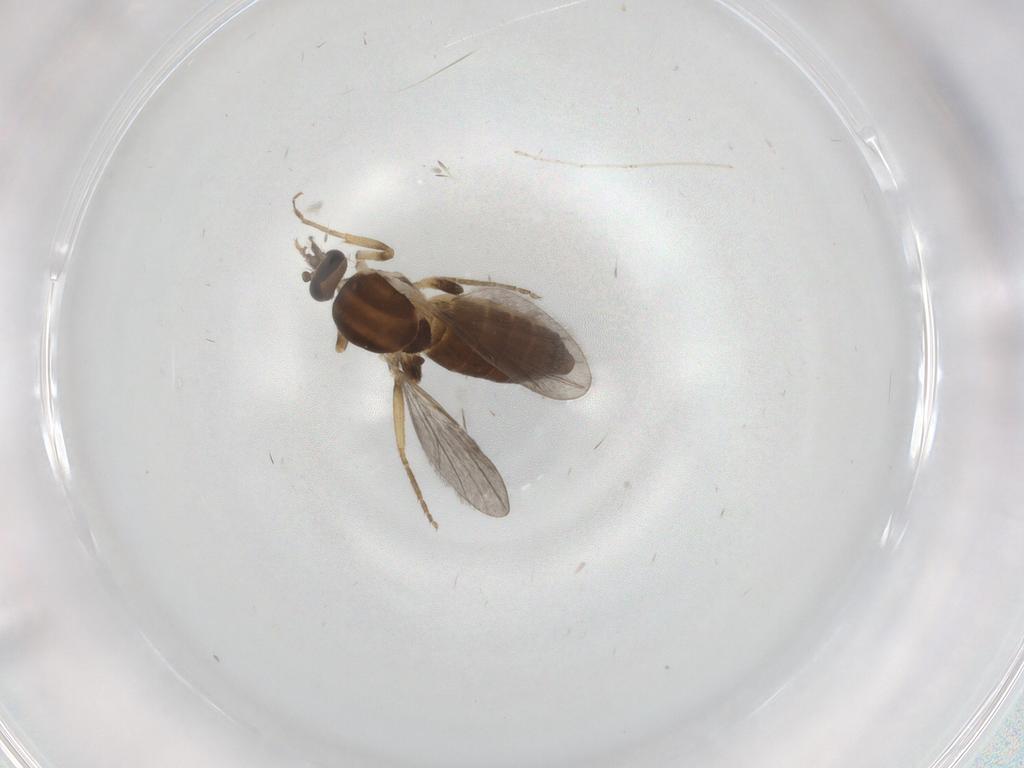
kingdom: Animalia
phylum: Arthropoda
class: Insecta
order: Diptera
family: Ceratopogonidae
